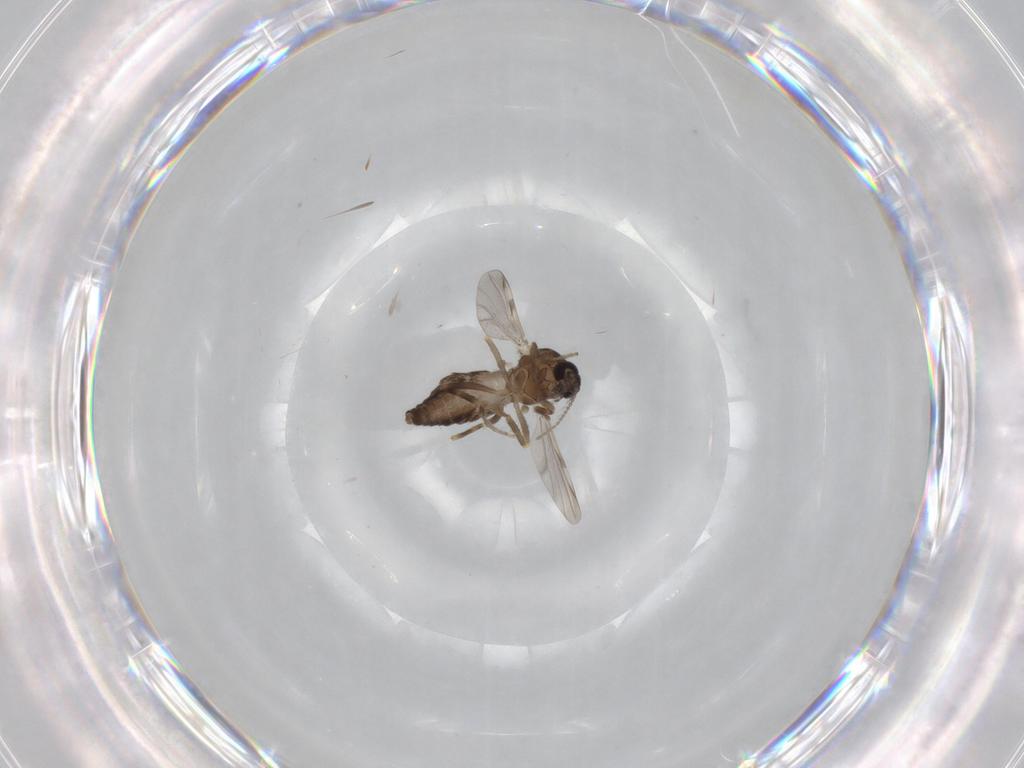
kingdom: Animalia
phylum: Arthropoda
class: Insecta
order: Diptera
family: Ceratopogonidae
